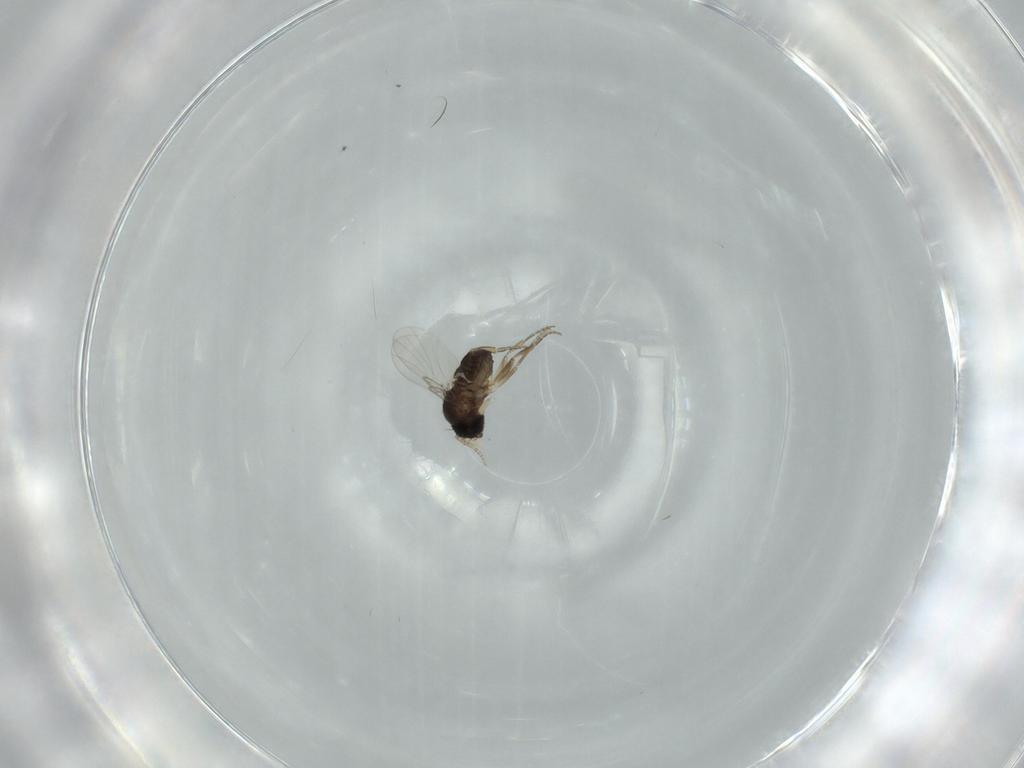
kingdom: Animalia
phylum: Arthropoda
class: Insecta
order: Diptera
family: Phoridae
